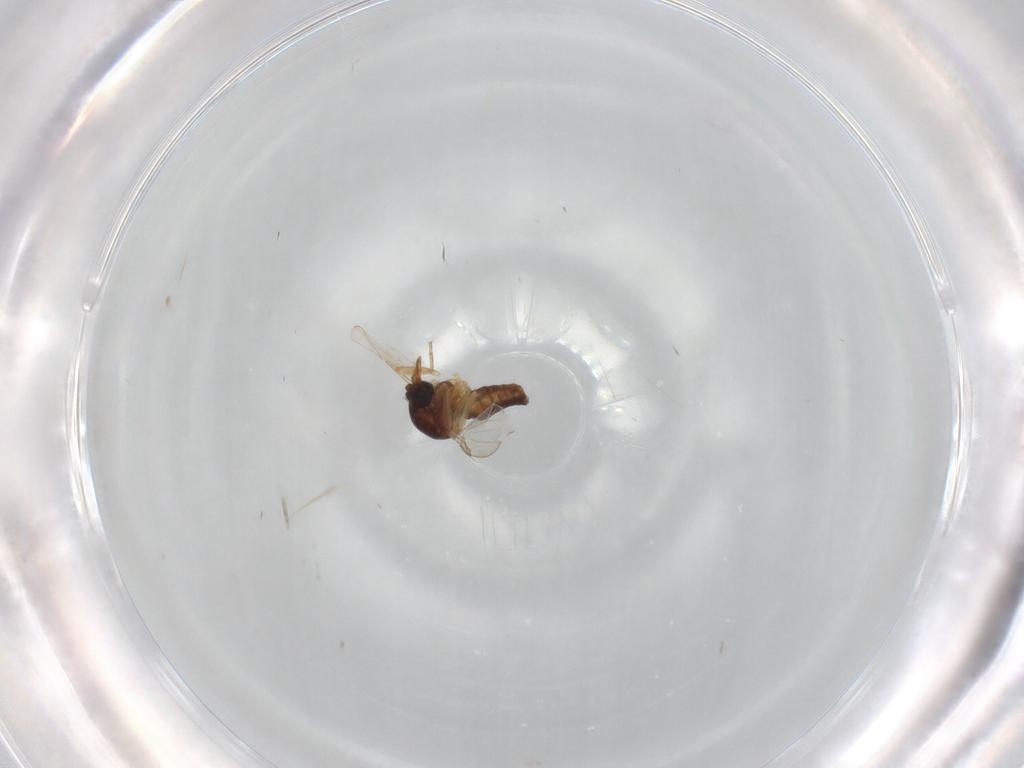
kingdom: Animalia
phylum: Arthropoda
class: Insecta
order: Diptera
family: Ceratopogonidae
